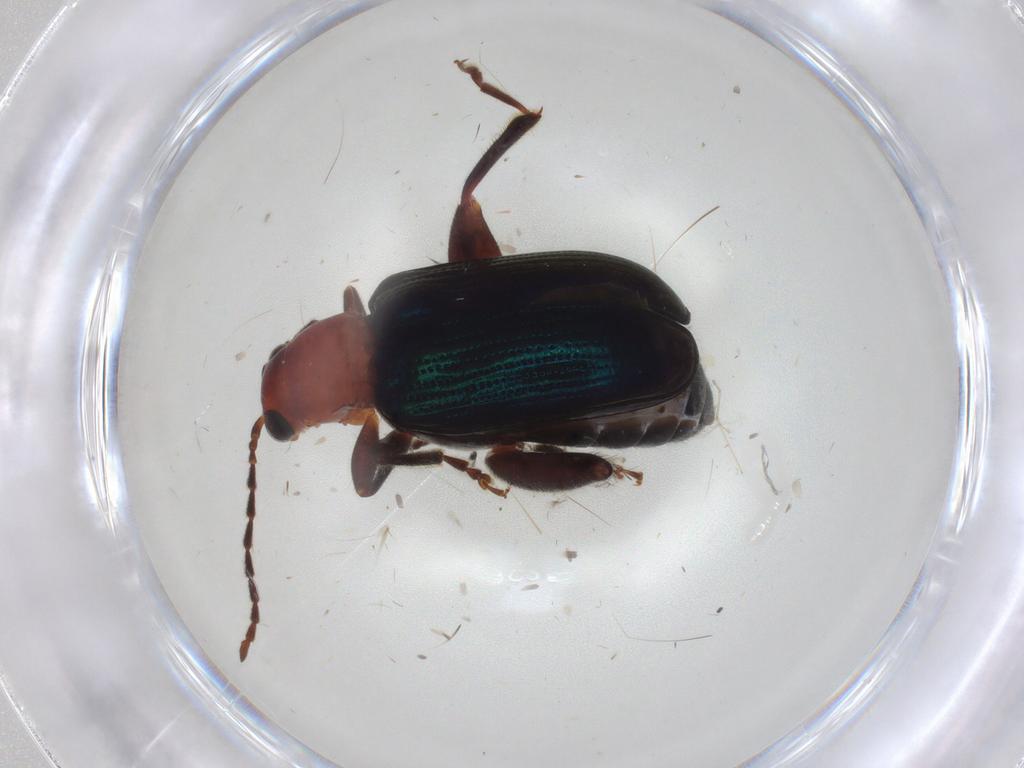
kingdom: Animalia
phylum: Arthropoda
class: Insecta
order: Coleoptera
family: Chrysomelidae
